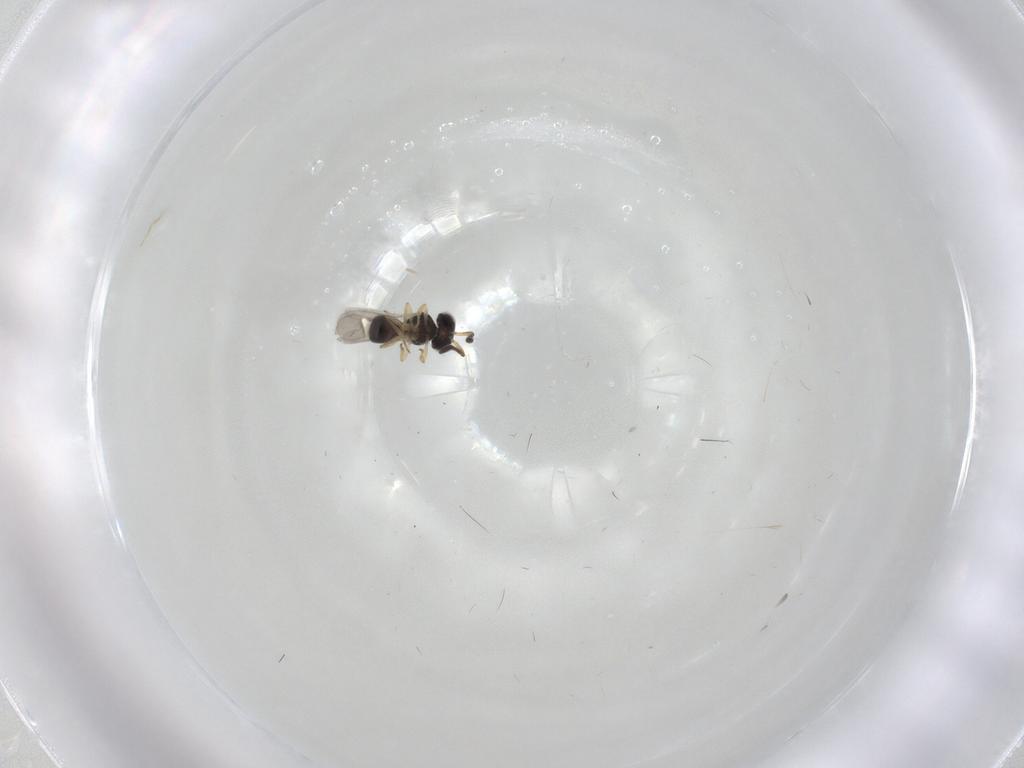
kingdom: Animalia
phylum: Arthropoda
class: Insecta
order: Hymenoptera
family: Scelionidae
